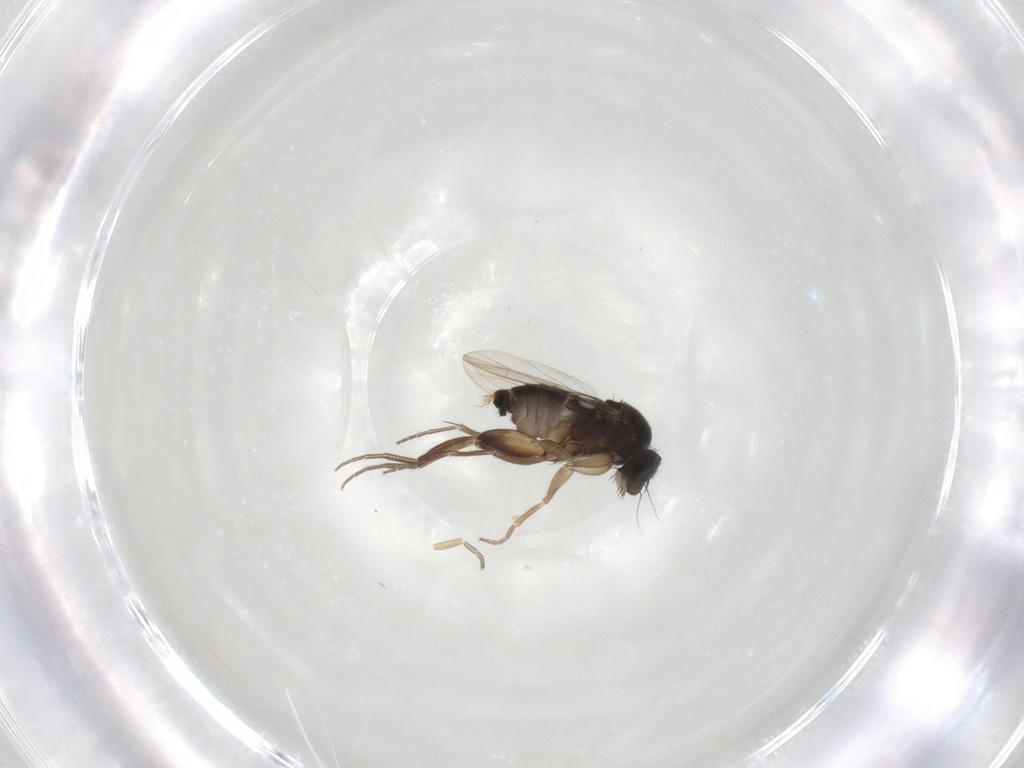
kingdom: Animalia
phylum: Arthropoda
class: Insecta
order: Diptera
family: Phoridae
